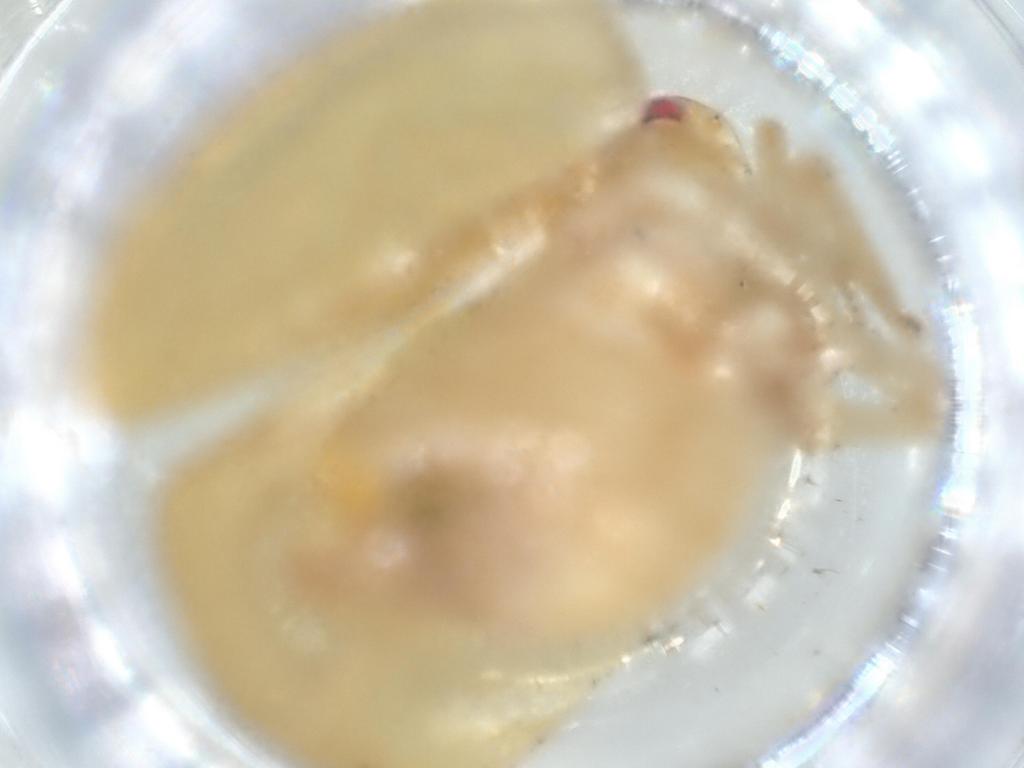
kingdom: Animalia
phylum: Arthropoda
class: Insecta
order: Hemiptera
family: Acanaloniidae
